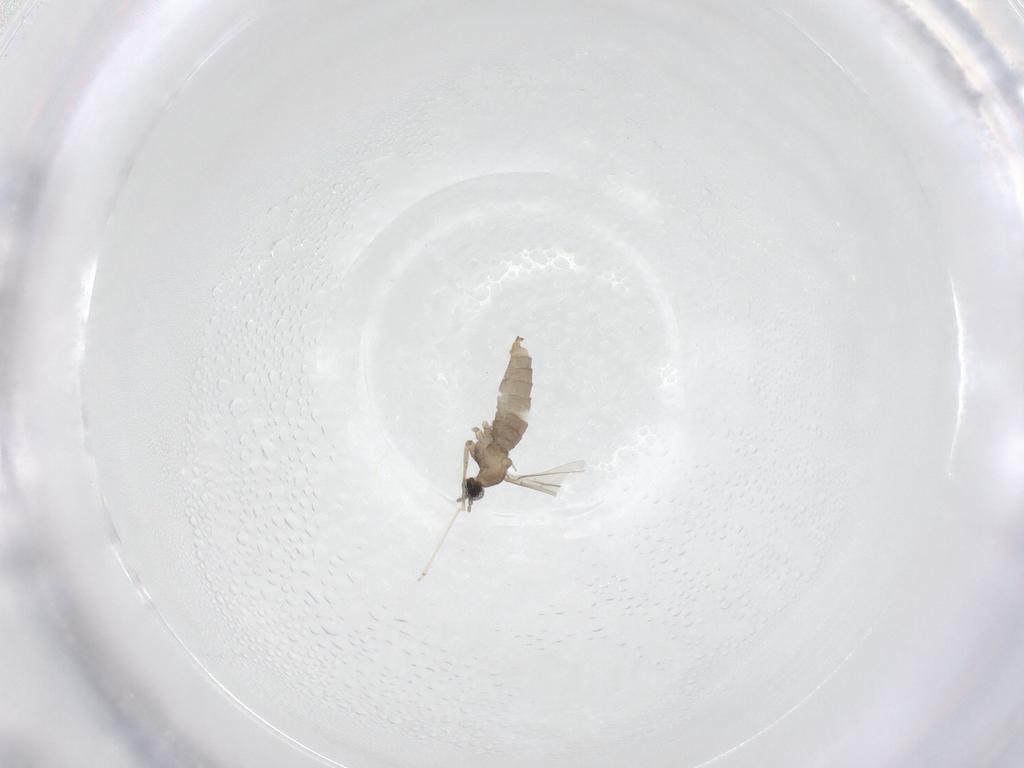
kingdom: Animalia
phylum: Arthropoda
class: Insecta
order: Diptera
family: Cecidomyiidae
